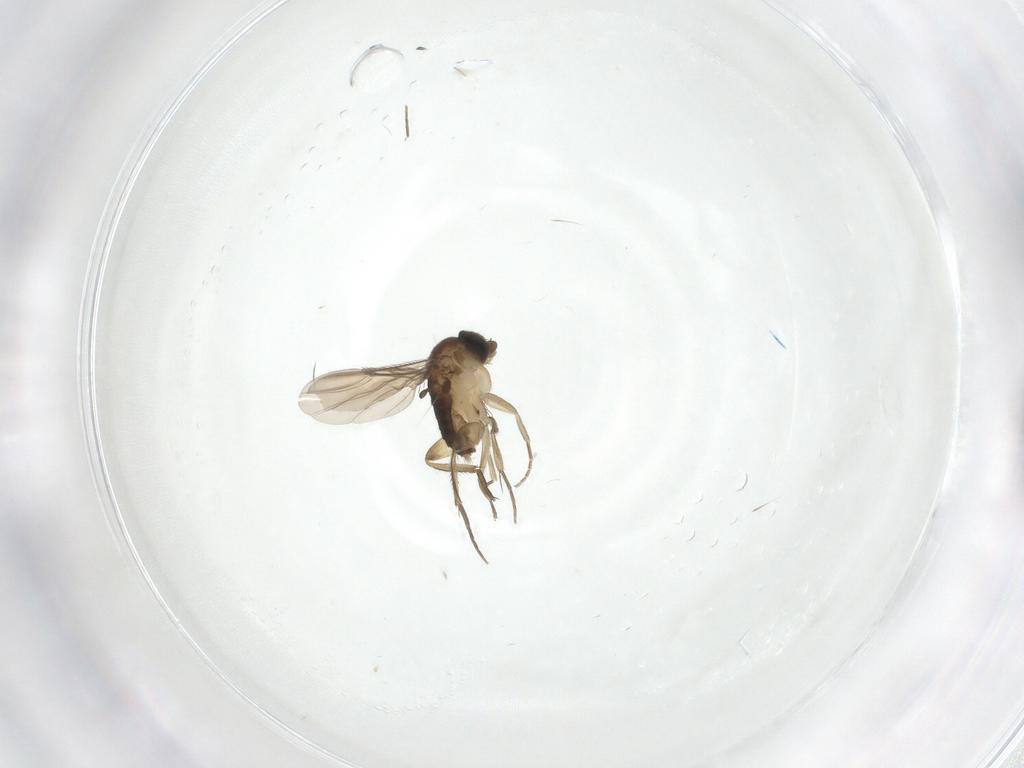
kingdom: Animalia
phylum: Arthropoda
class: Insecta
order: Diptera
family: Phoridae
